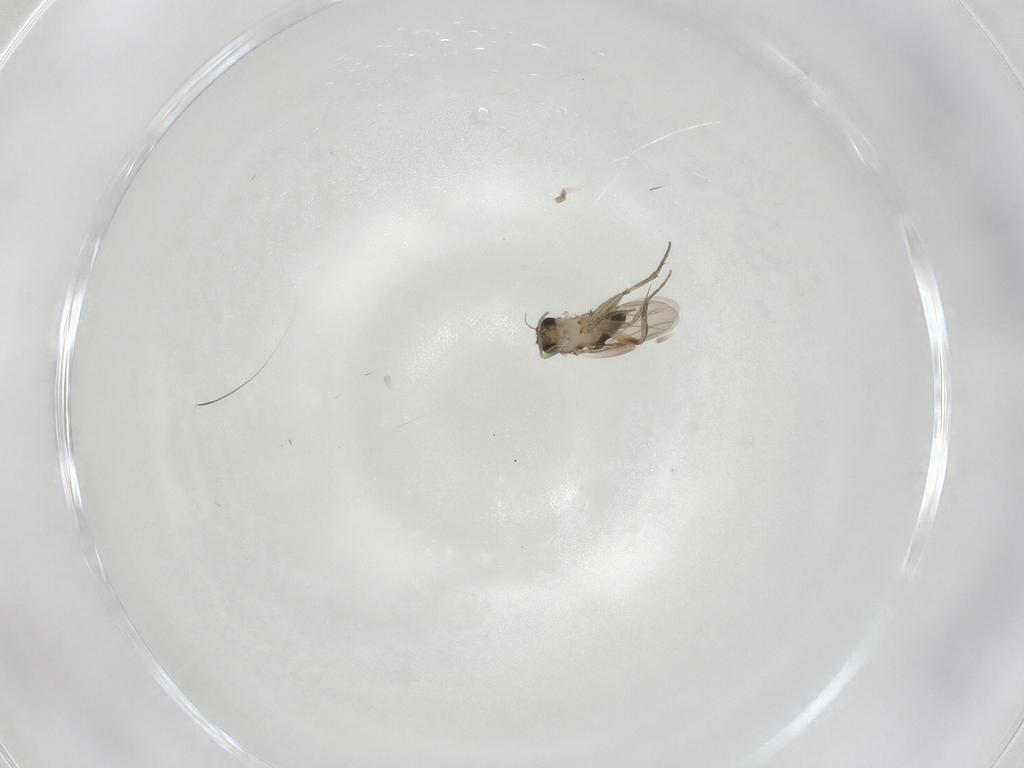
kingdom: Animalia
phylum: Arthropoda
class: Insecta
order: Diptera
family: Phoridae
